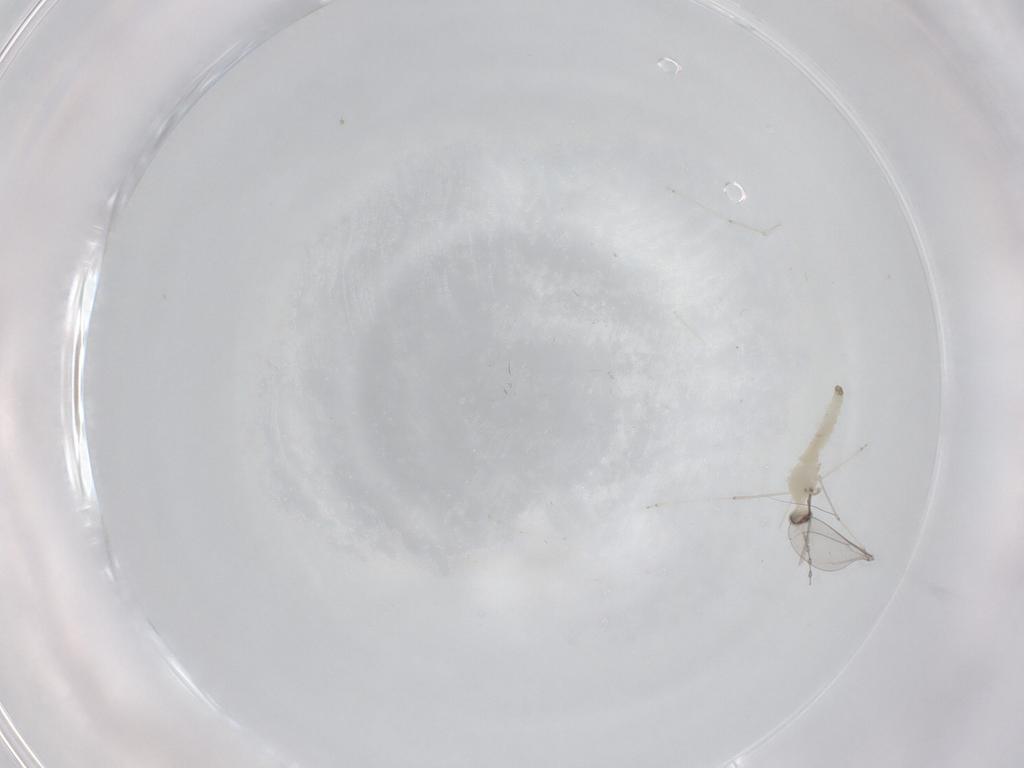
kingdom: Animalia
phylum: Arthropoda
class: Insecta
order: Diptera
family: Cecidomyiidae
